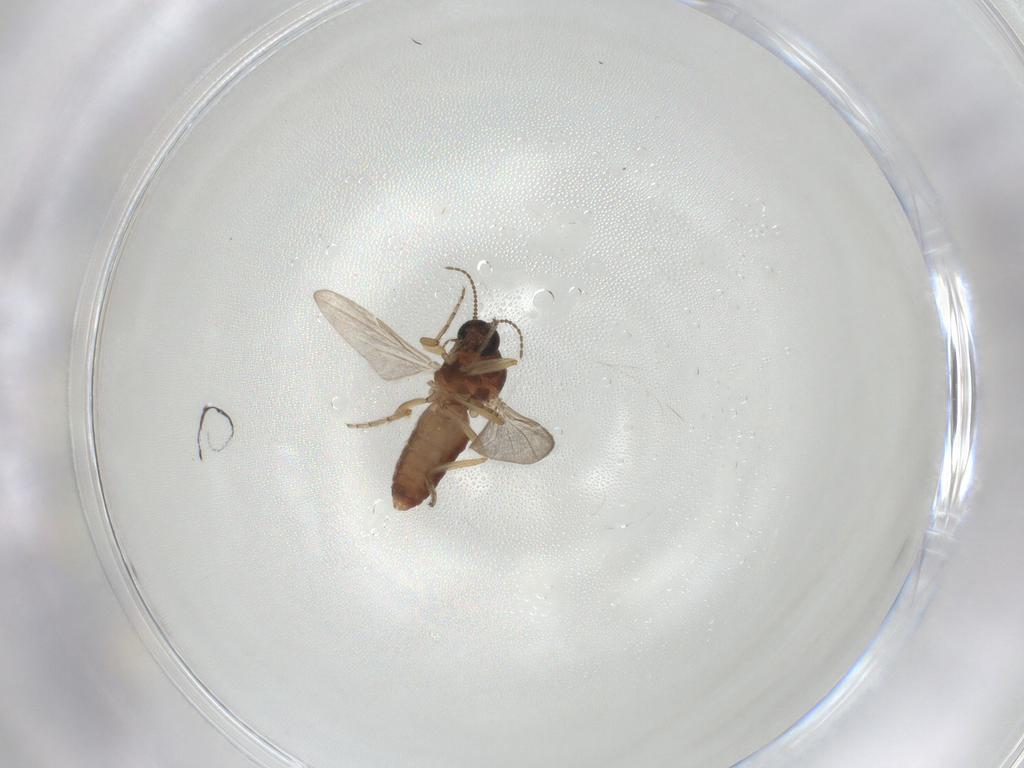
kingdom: Animalia
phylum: Arthropoda
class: Insecta
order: Diptera
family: Ceratopogonidae
